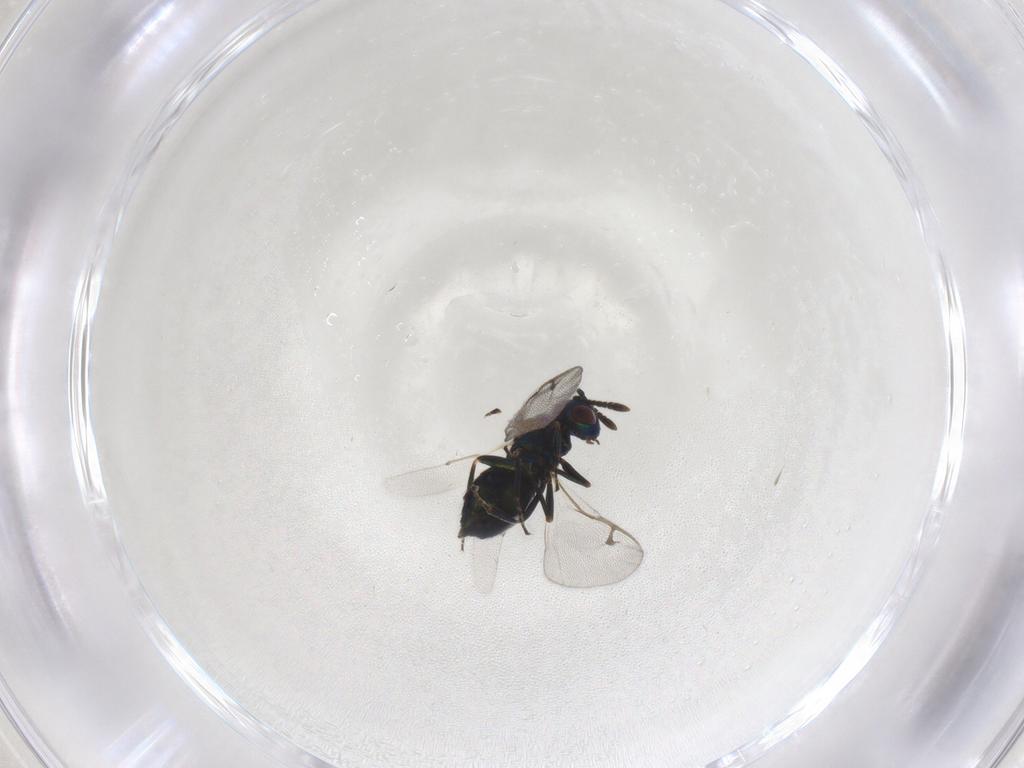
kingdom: Animalia
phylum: Arthropoda
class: Insecta
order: Hymenoptera
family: Pteromalidae
